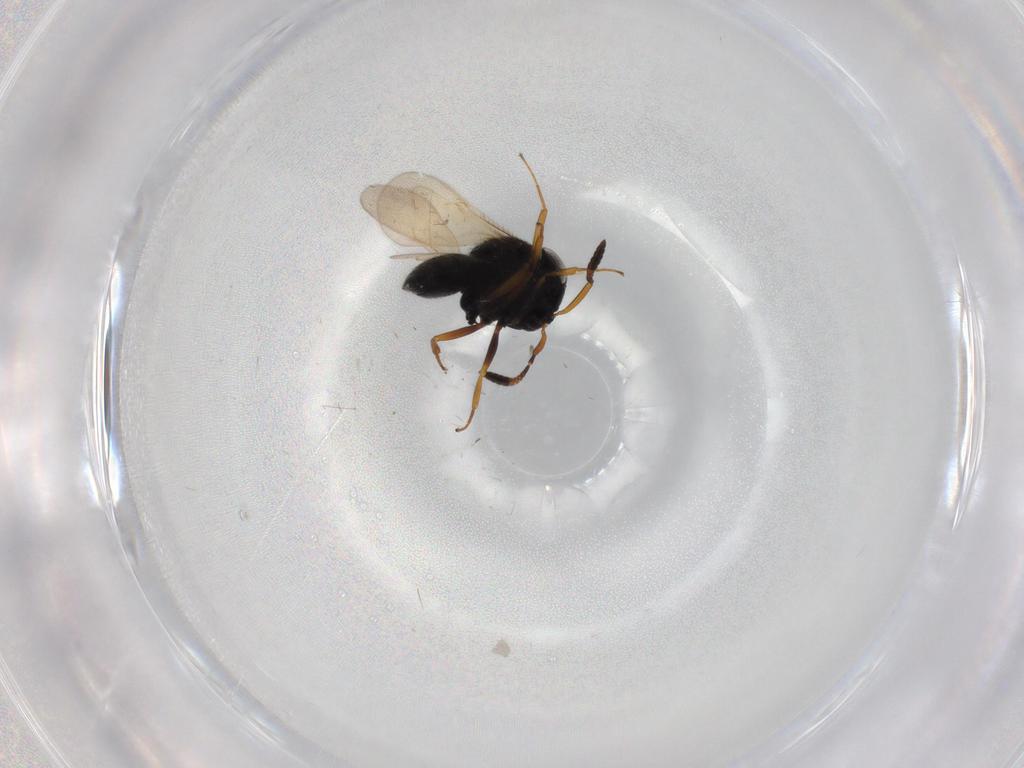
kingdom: Animalia
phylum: Arthropoda
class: Insecta
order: Hymenoptera
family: Scelionidae
